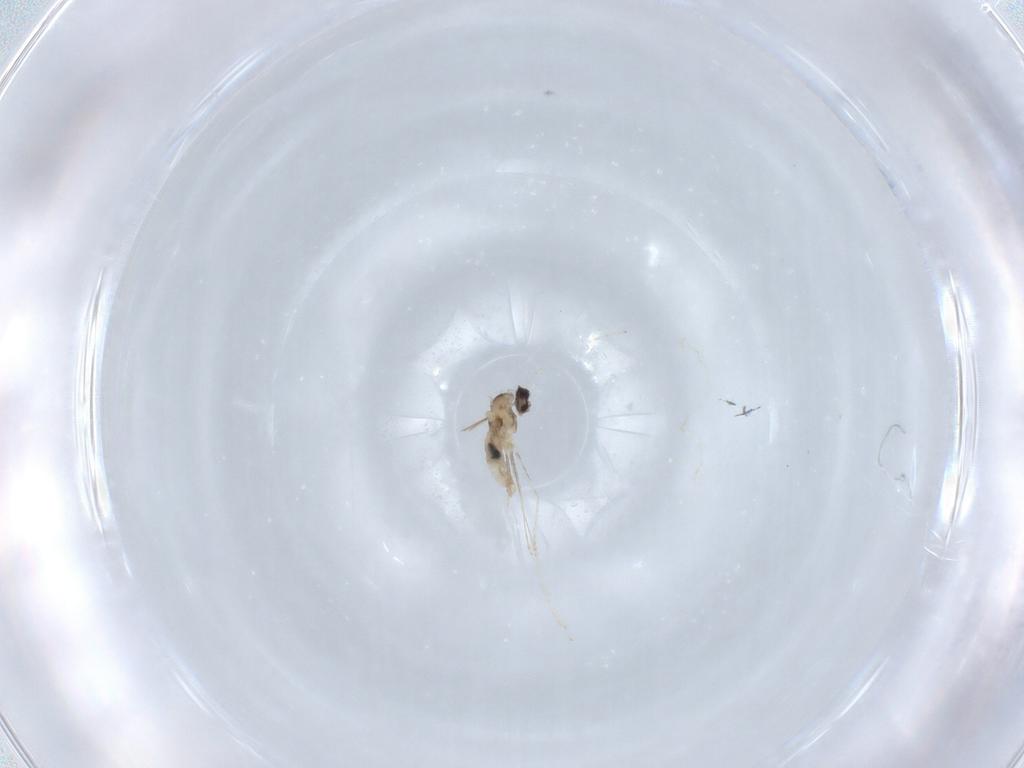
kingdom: Animalia
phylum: Arthropoda
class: Insecta
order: Diptera
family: Cecidomyiidae
